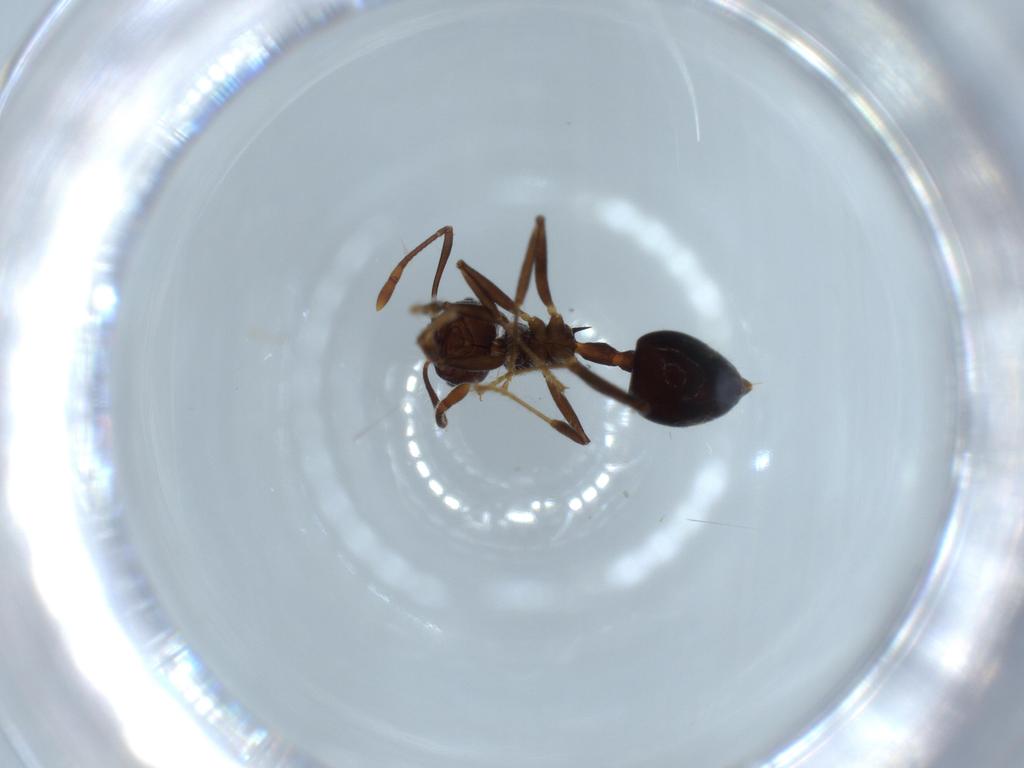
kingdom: Animalia
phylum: Arthropoda
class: Insecta
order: Hymenoptera
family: Formicidae
